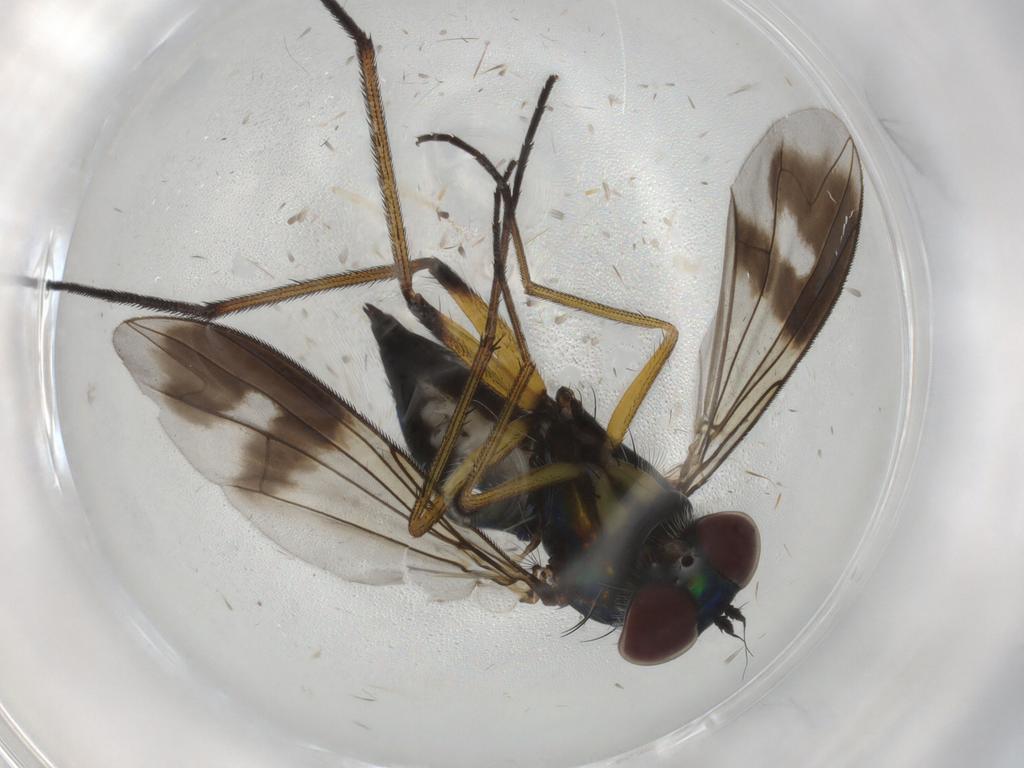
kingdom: Animalia
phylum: Arthropoda
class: Insecta
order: Diptera
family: Dolichopodidae
